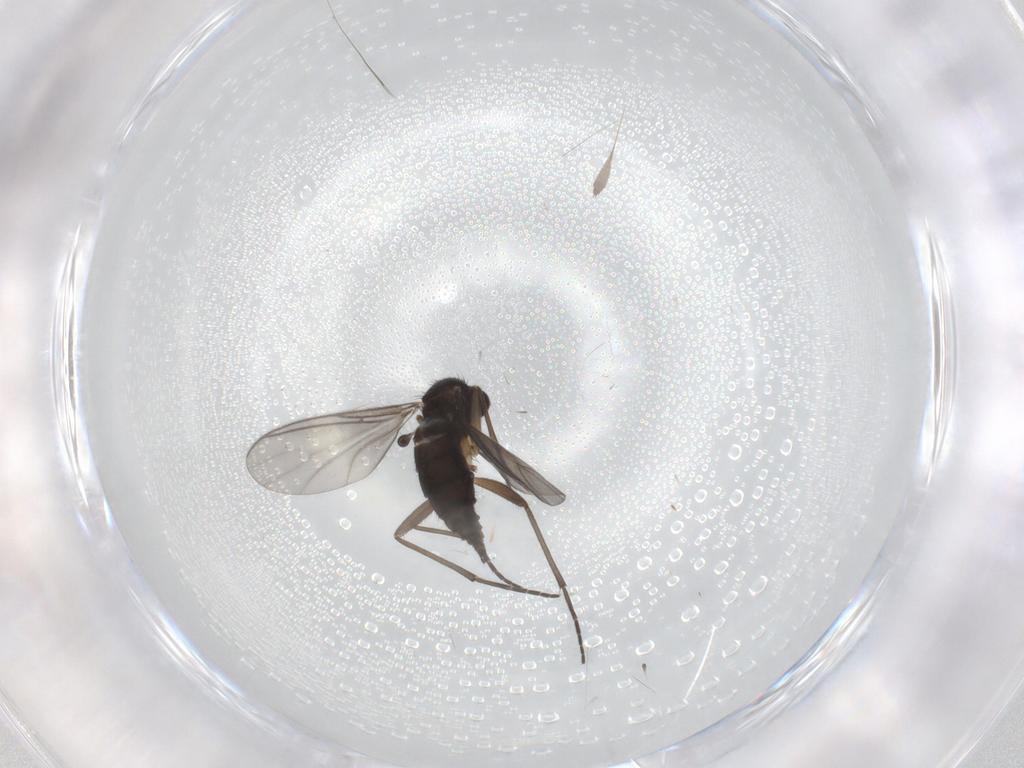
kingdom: Animalia
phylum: Arthropoda
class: Insecta
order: Diptera
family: Sciaridae
